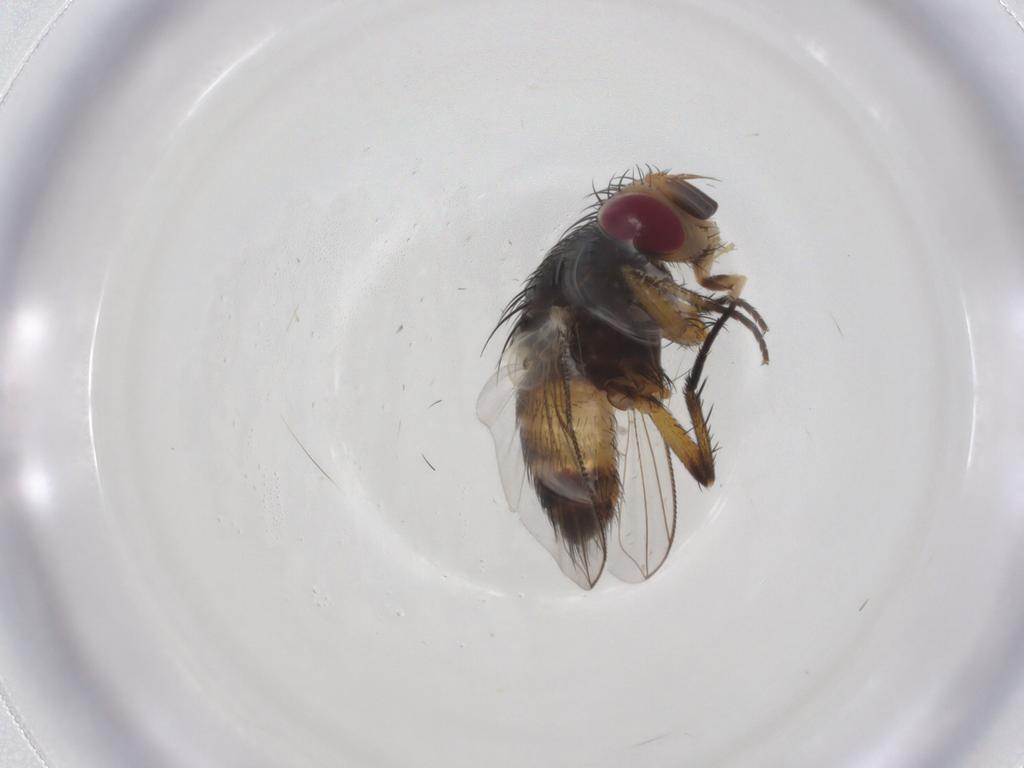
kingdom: Animalia
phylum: Arthropoda
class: Insecta
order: Diptera
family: Tachinidae
